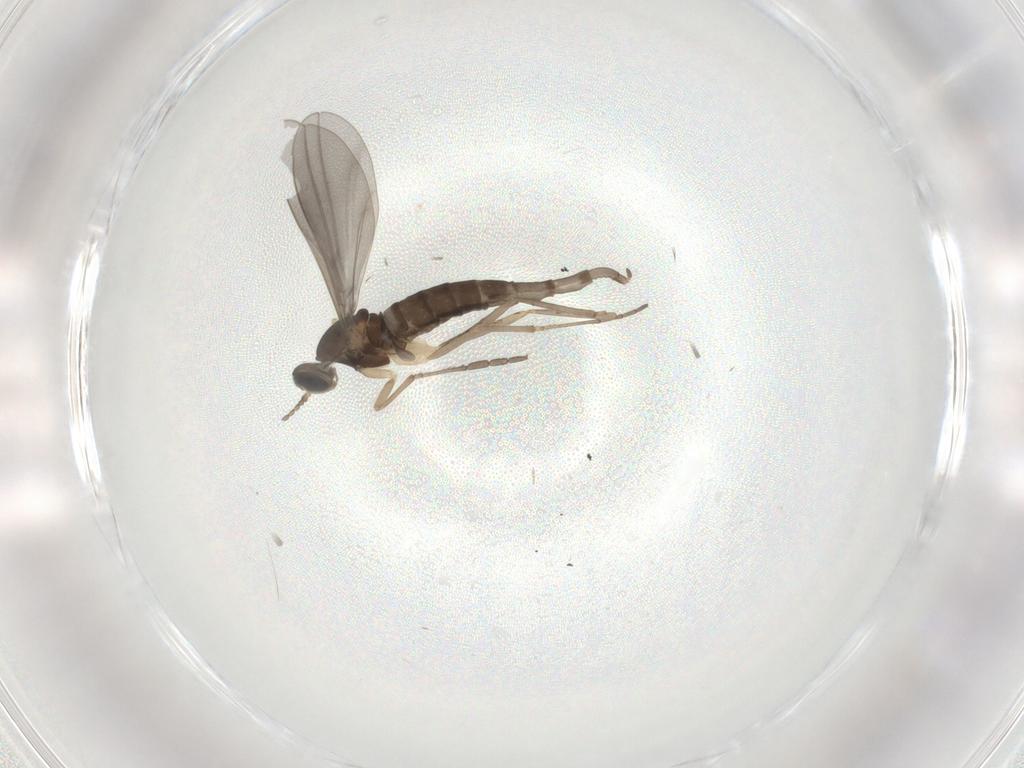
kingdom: Animalia
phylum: Arthropoda
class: Insecta
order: Diptera
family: Cecidomyiidae
